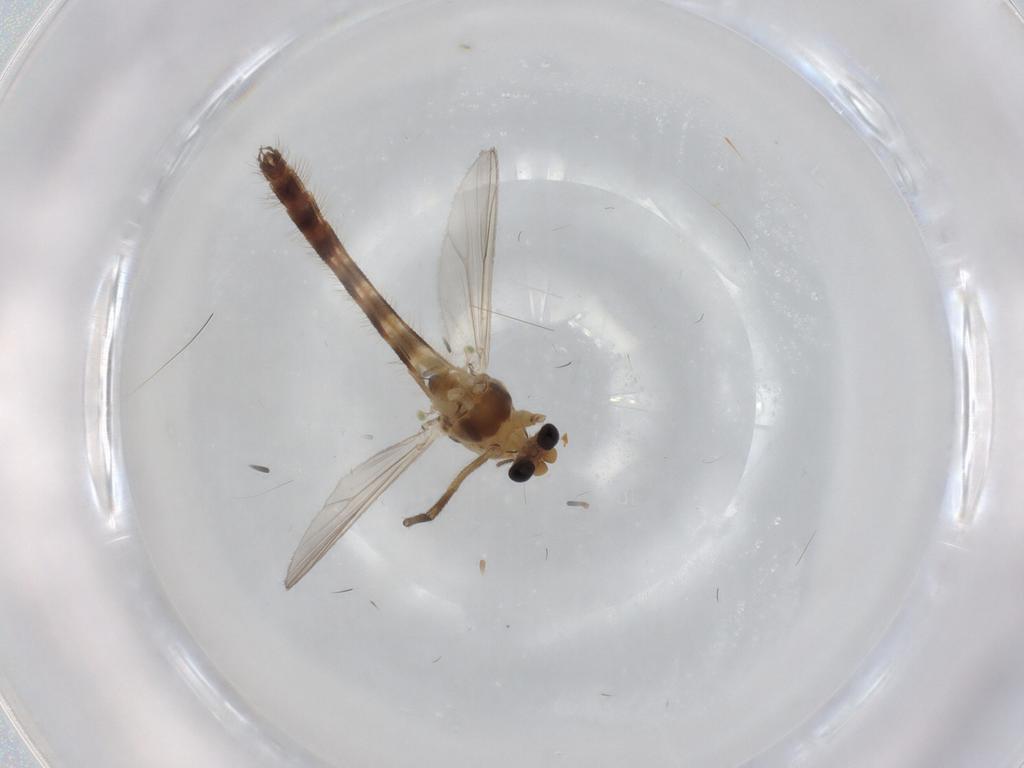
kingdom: Animalia
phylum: Arthropoda
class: Insecta
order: Diptera
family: Chironomidae
